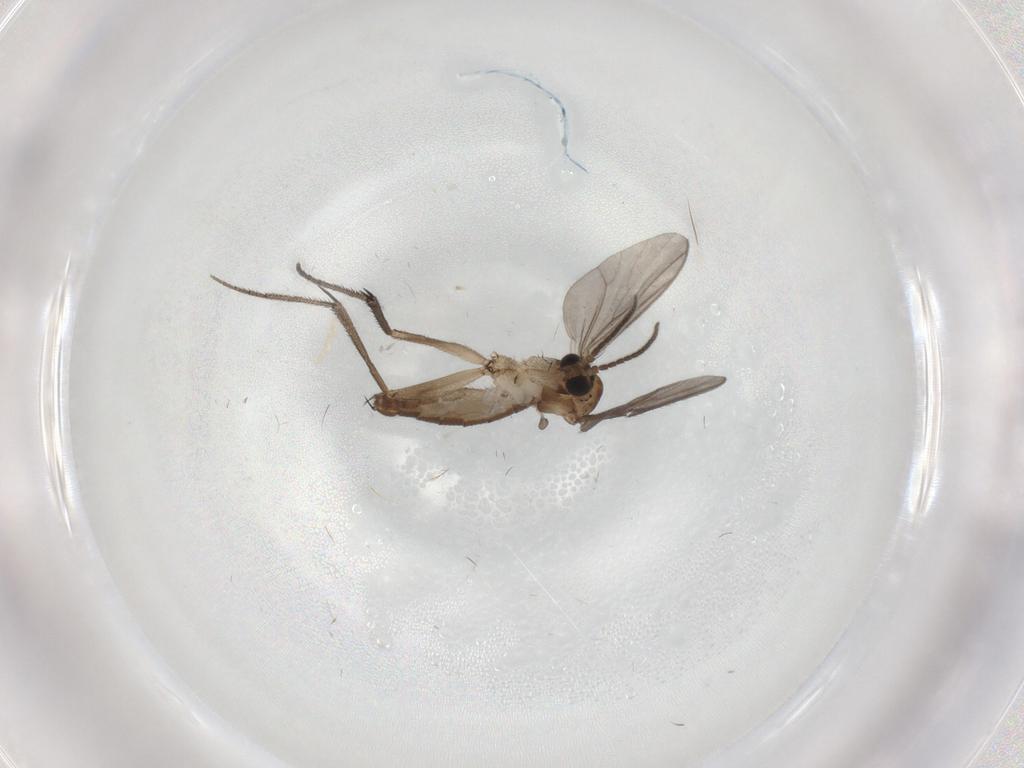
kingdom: Animalia
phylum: Arthropoda
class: Insecta
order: Diptera
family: Mycetophilidae
